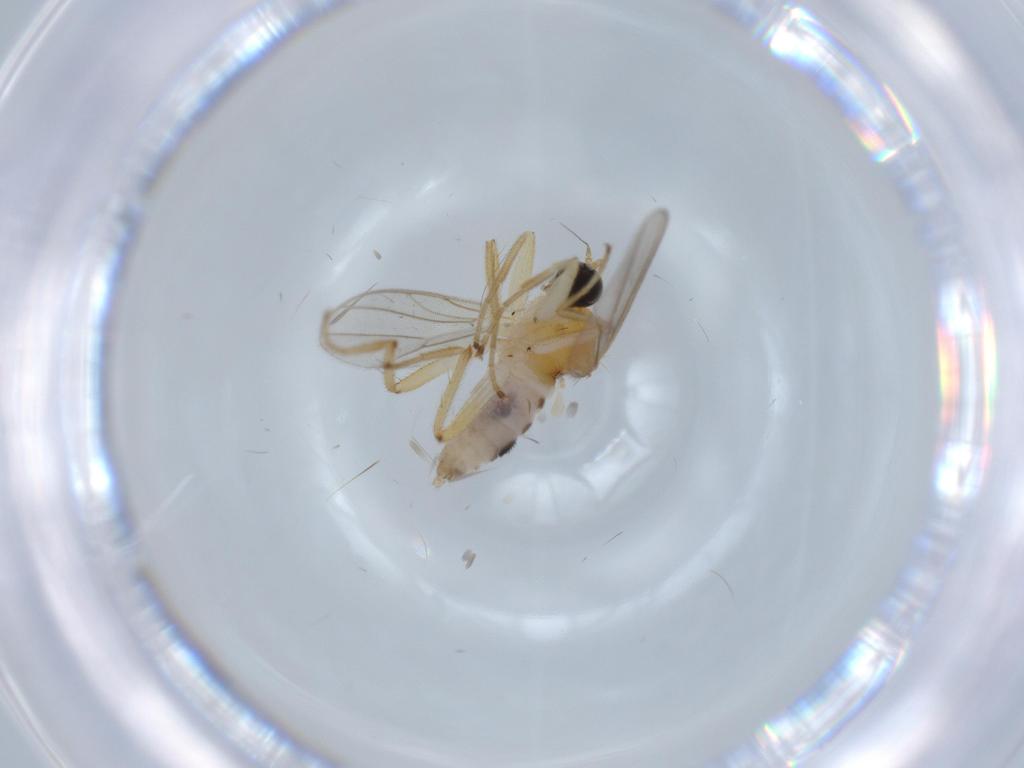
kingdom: Animalia
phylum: Arthropoda
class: Insecta
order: Diptera
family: Hybotidae
